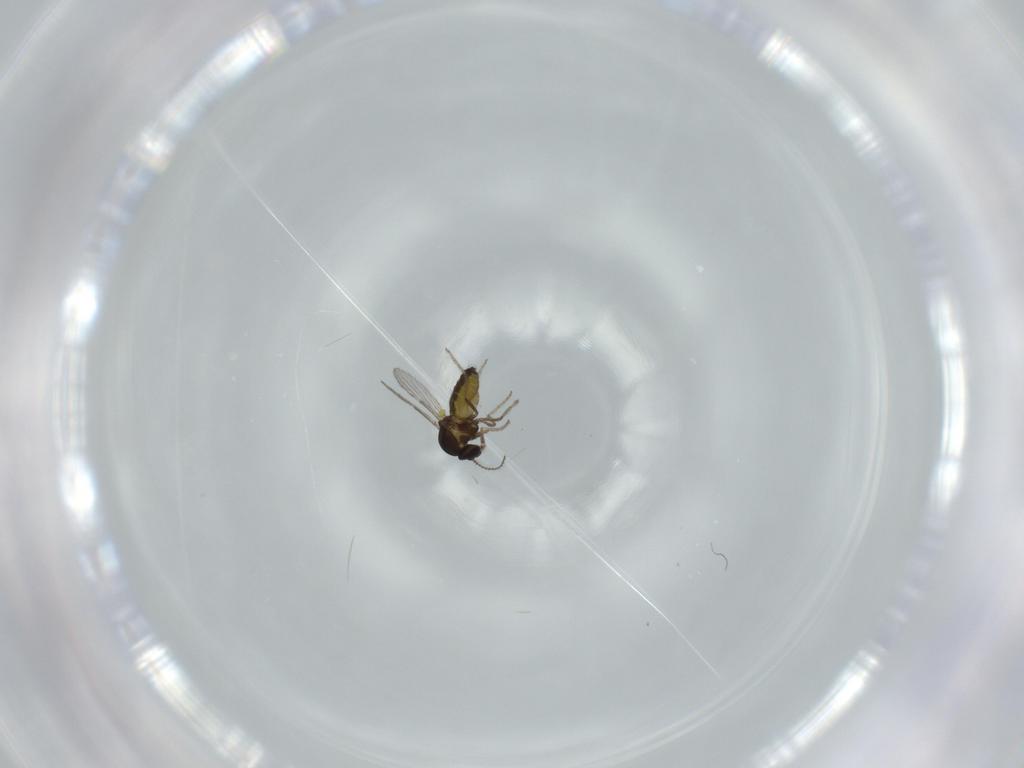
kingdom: Animalia
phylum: Arthropoda
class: Insecta
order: Diptera
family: Ceratopogonidae
